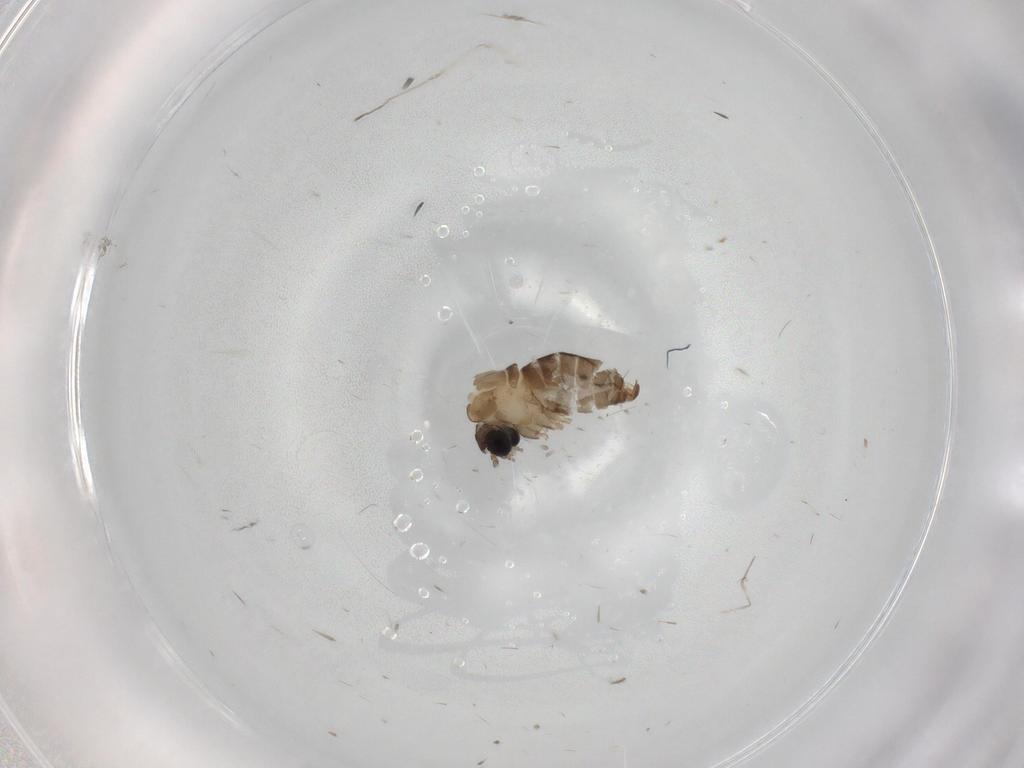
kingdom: Animalia
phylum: Arthropoda
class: Insecta
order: Diptera
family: Psychodidae
